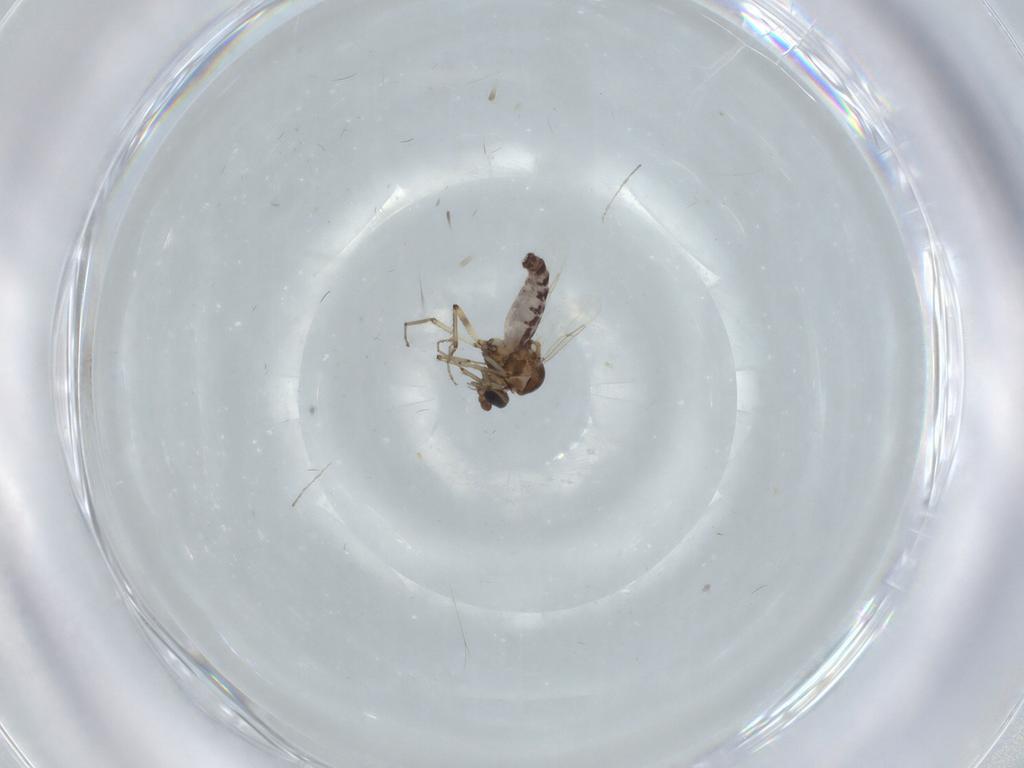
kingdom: Animalia
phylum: Arthropoda
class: Insecta
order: Diptera
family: Ceratopogonidae
